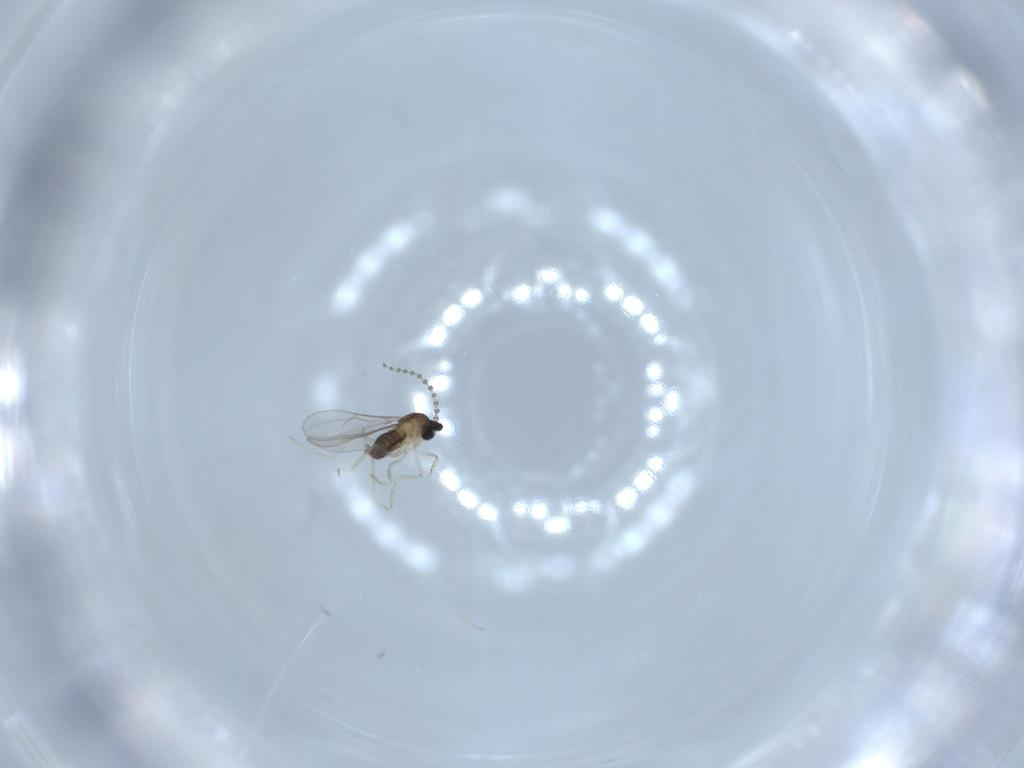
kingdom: Animalia
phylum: Arthropoda
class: Insecta
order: Diptera
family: Cecidomyiidae
